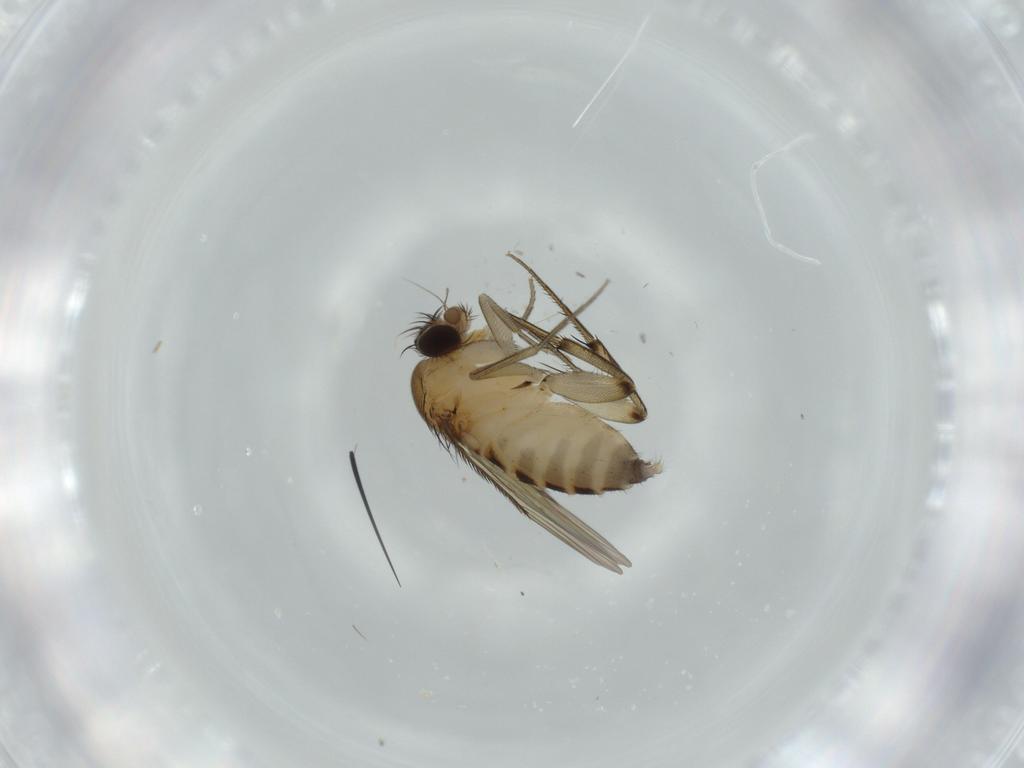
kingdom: Animalia
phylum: Arthropoda
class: Insecta
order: Diptera
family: Phoridae
